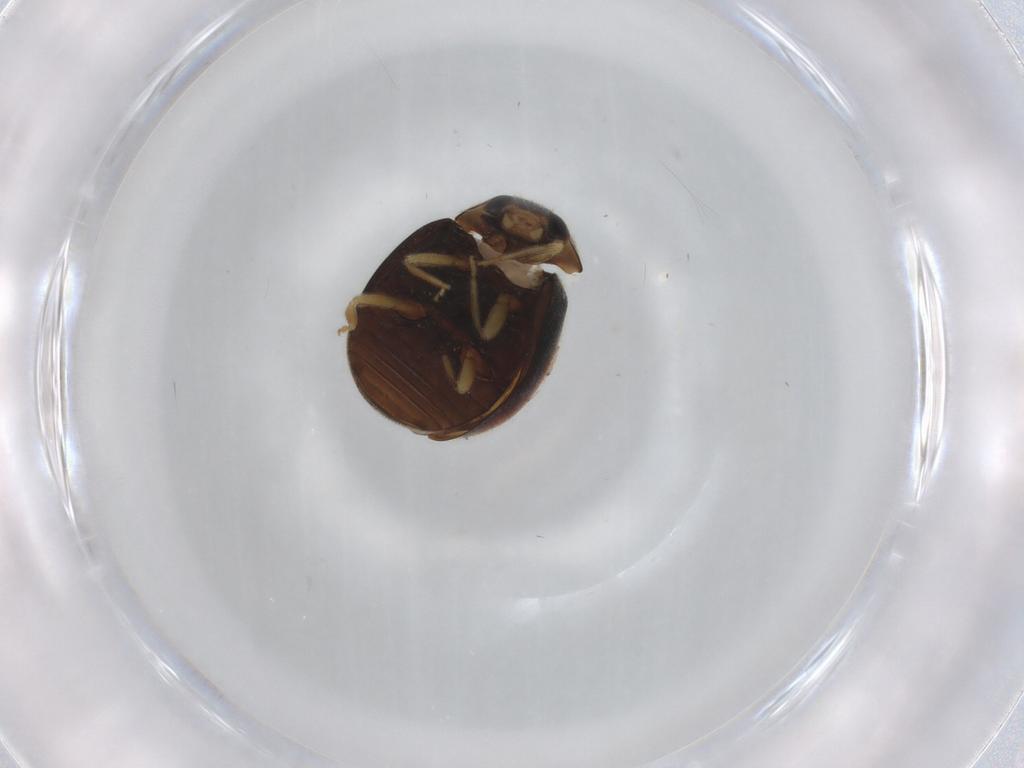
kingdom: Animalia
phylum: Arthropoda
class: Insecta
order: Coleoptera
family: Coccinellidae
